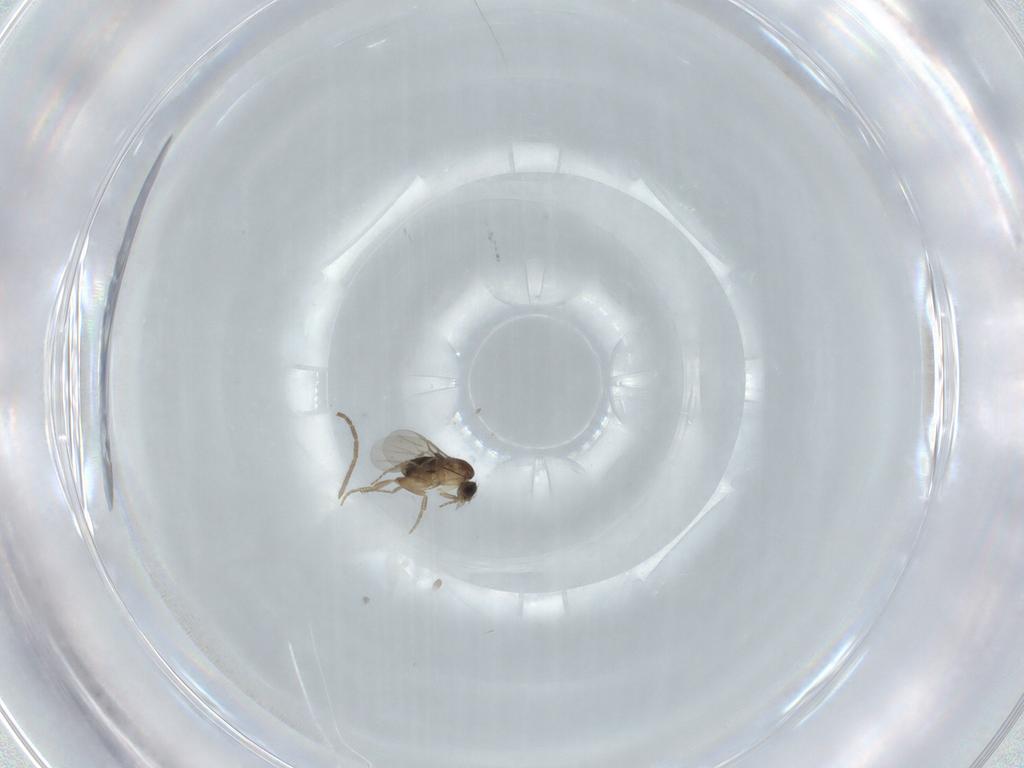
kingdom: Animalia
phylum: Arthropoda
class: Insecta
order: Diptera
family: Phoridae
